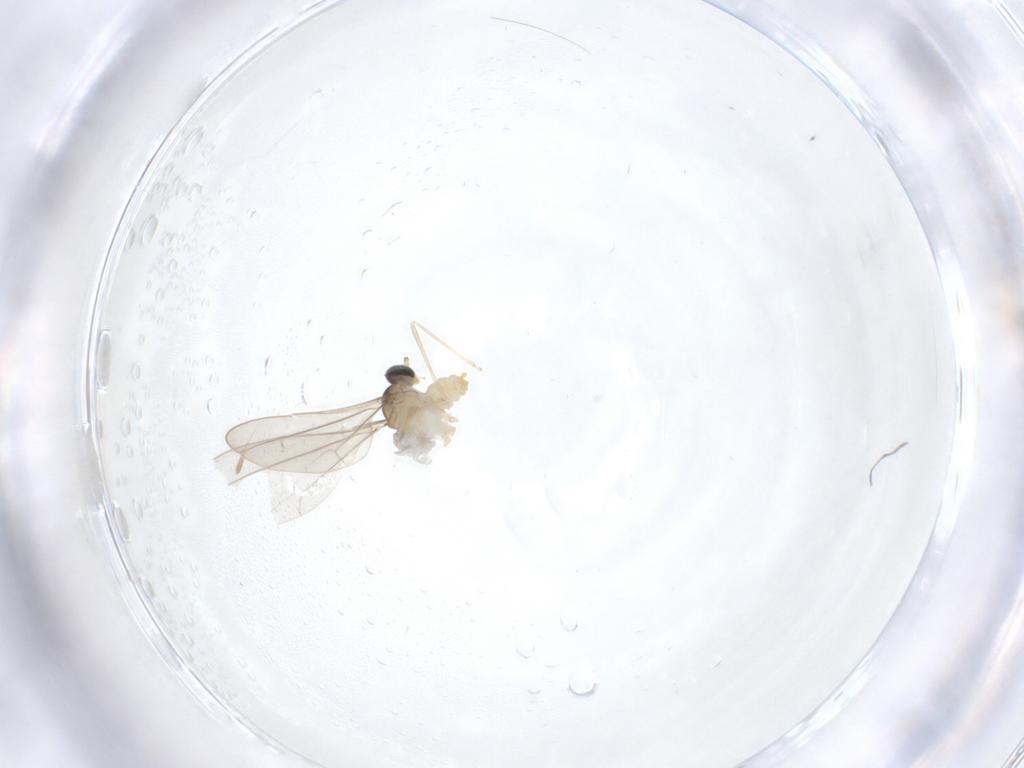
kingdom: Animalia
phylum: Arthropoda
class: Insecta
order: Diptera
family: Cecidomyiidae
